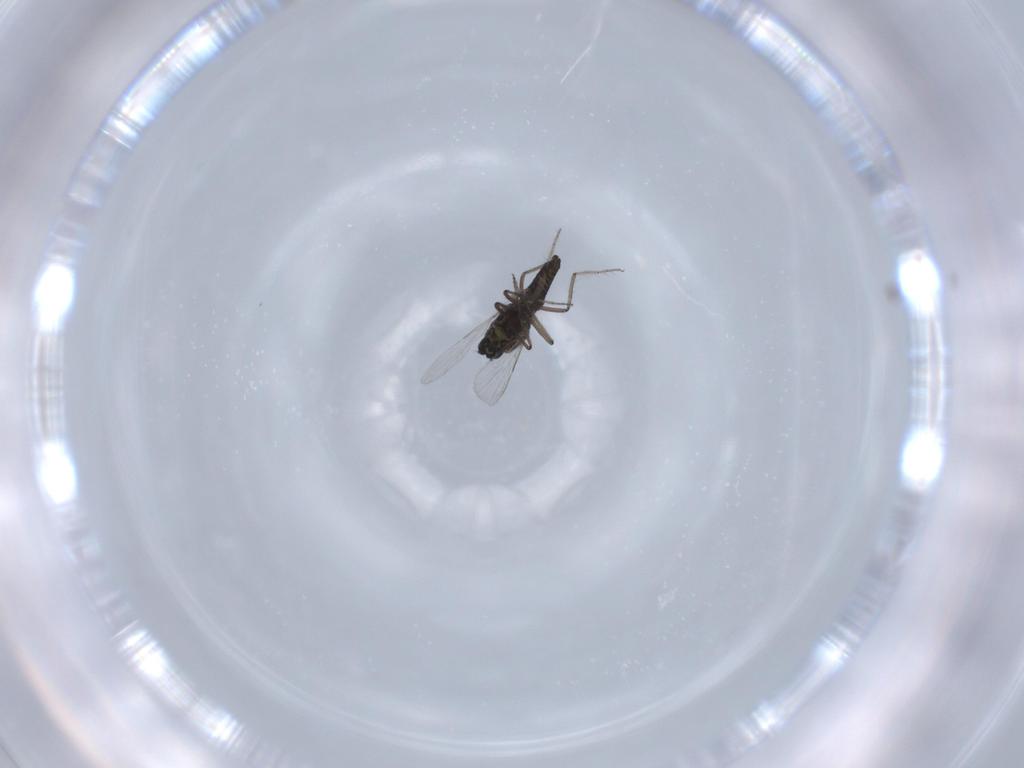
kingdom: Animalia
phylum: Arthropoda
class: Insecta
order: Diptera
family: Ceratopogonidae
